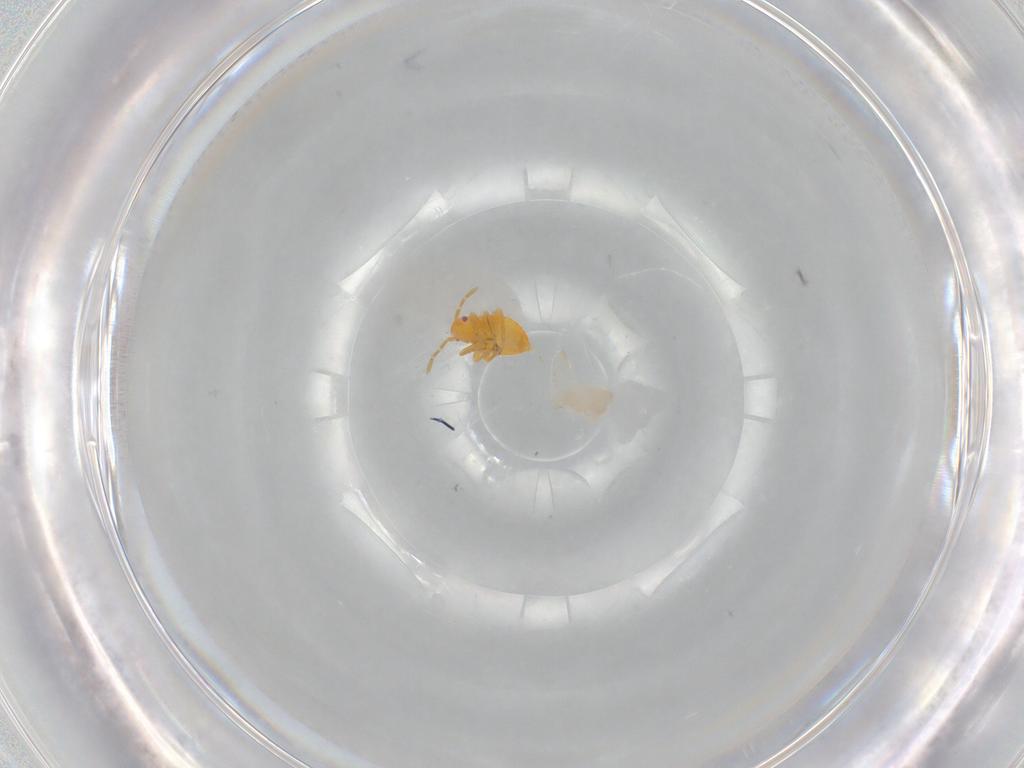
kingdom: Animalia
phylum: Arthropoda
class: Insecta
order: Hemiptera
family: Miridae
